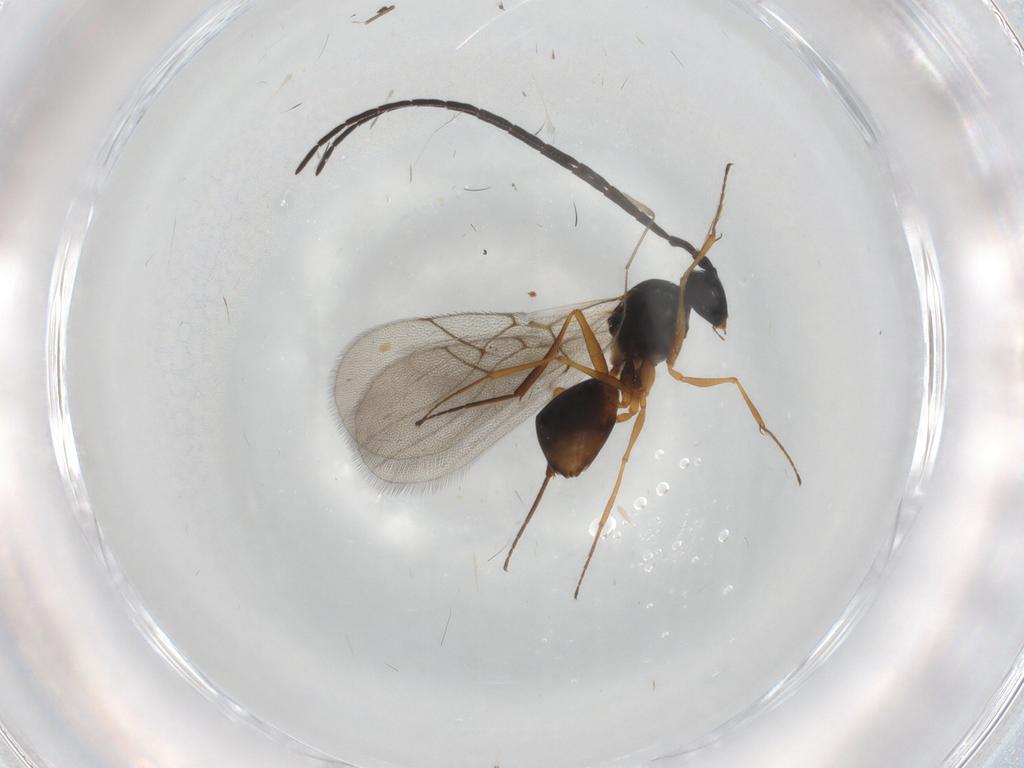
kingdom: Animalia
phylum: Arthropoda
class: Insecta
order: Hymenoptera
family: Figitidae
